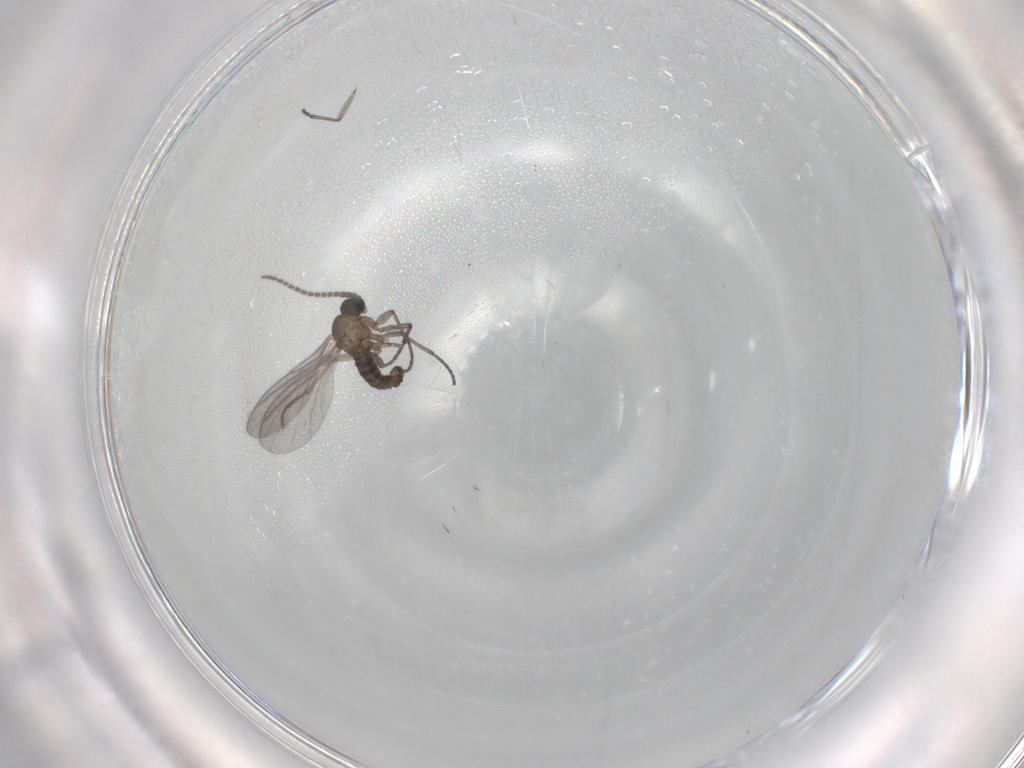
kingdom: Animalia
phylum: Arthropoda
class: Insecta
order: Diptera
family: Sciaridae
